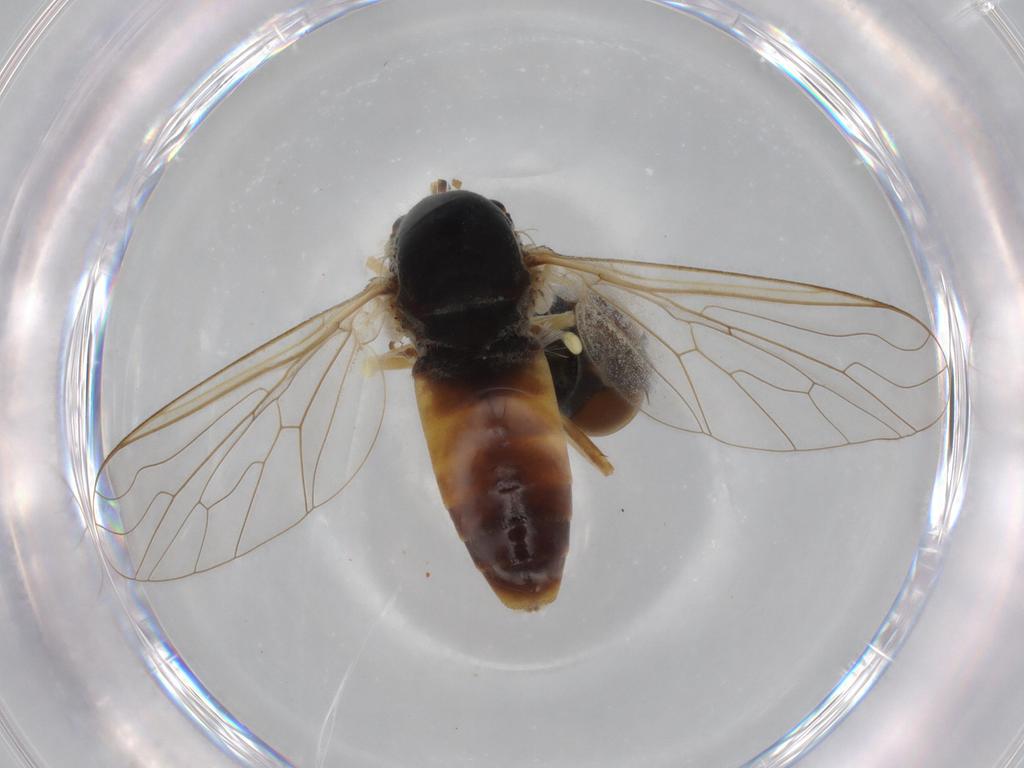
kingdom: Animalia
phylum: Arthropoda
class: Insecta
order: Diptera
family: Bombyliidae
